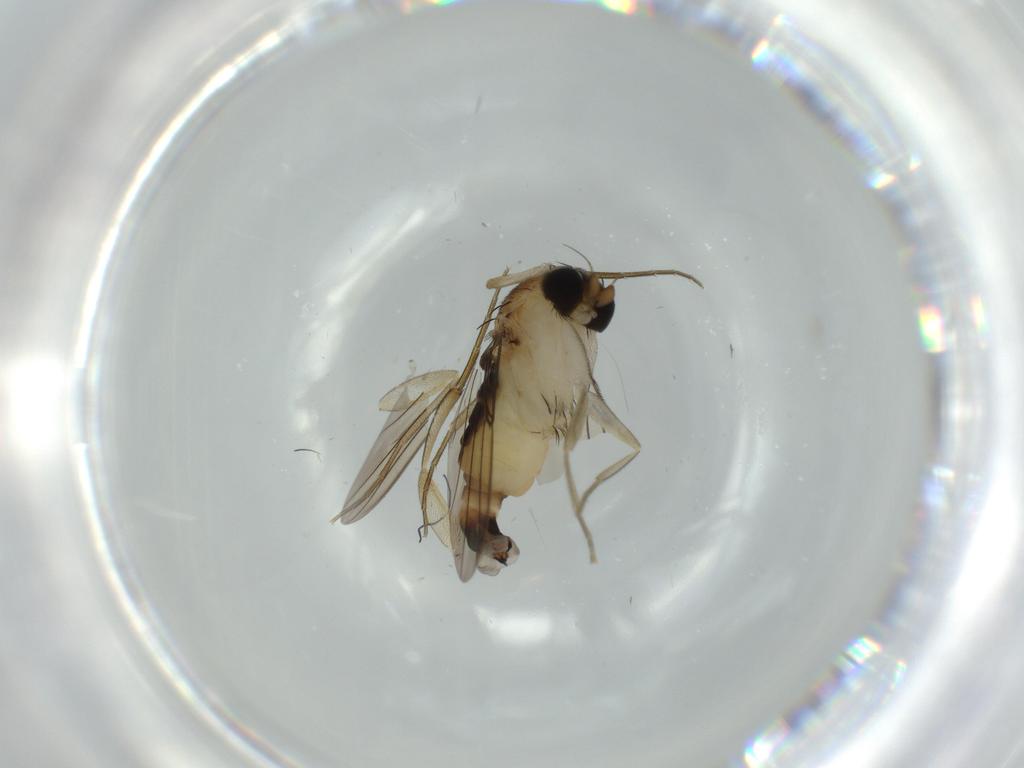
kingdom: Animalia
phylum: Arthropoda
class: Insecta
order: Diptera
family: Phoridae
